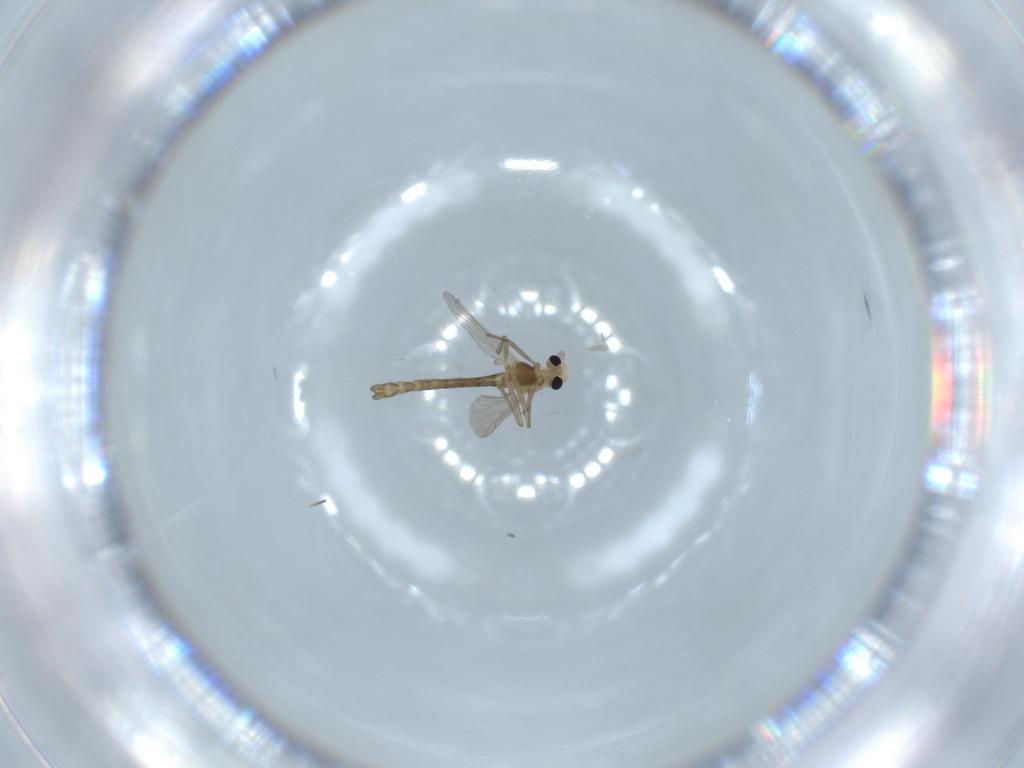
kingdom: Animalia
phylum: Arthropoda
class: Insecta
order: Diptera
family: Chironomidae
